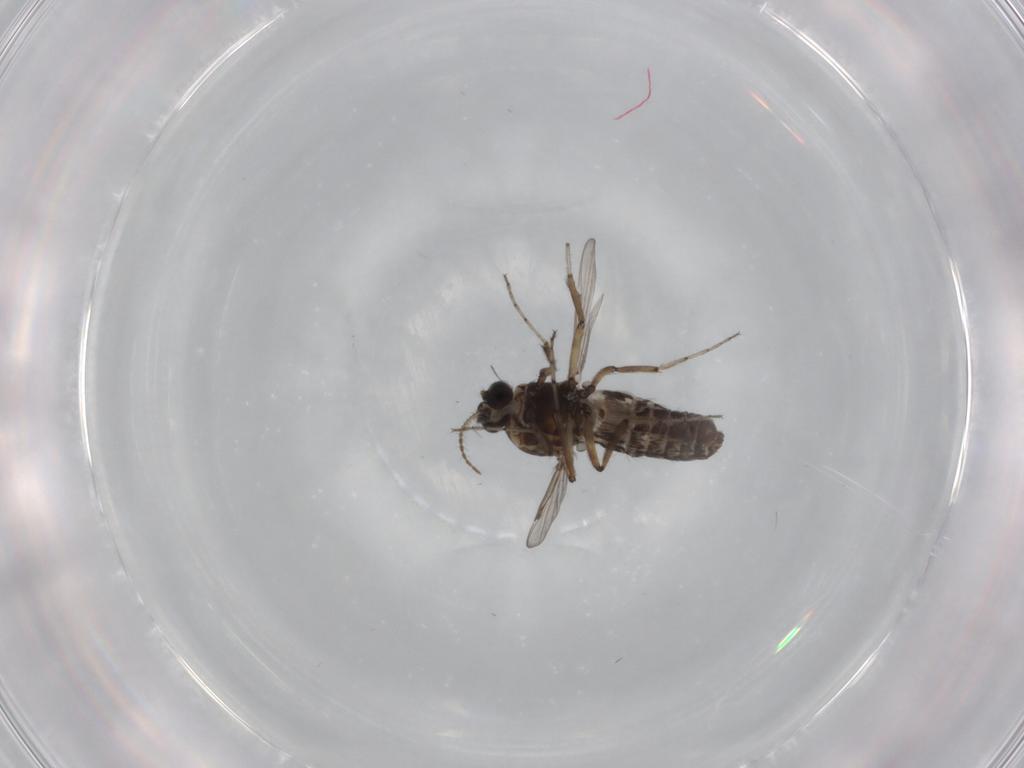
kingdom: Animalia
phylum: Arthropoda
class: Insecta
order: Diptera
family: Ceratopogonidae
